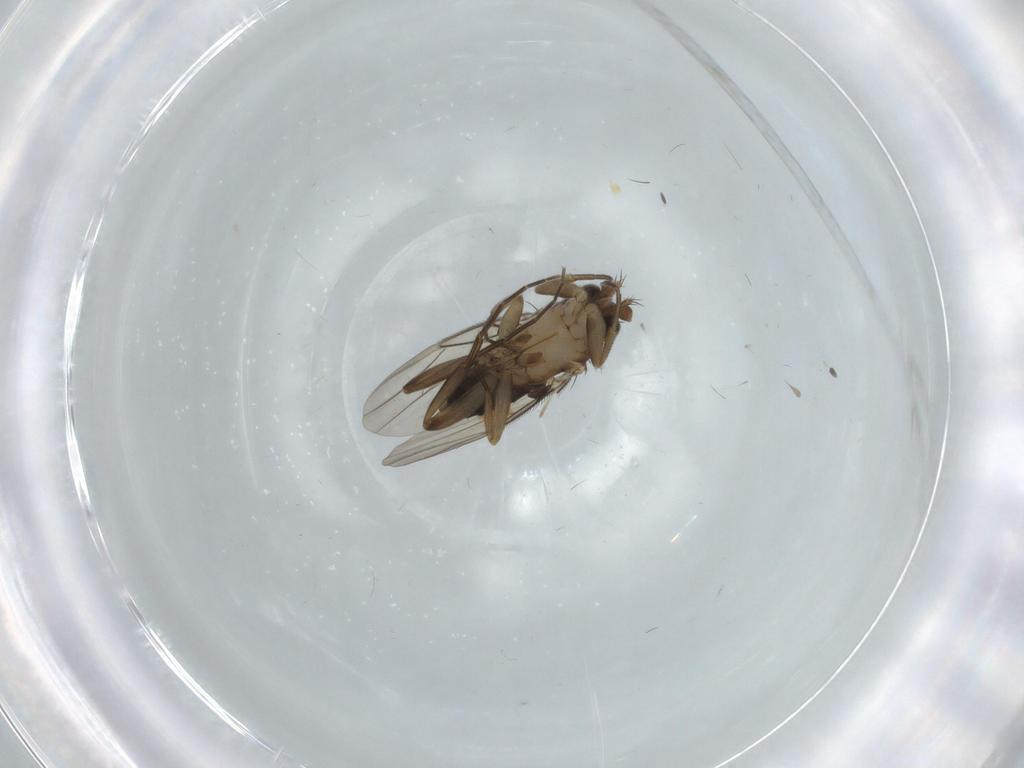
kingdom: Animalia
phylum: Arthropoda
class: Insecta
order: Diptera
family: Phoridae
